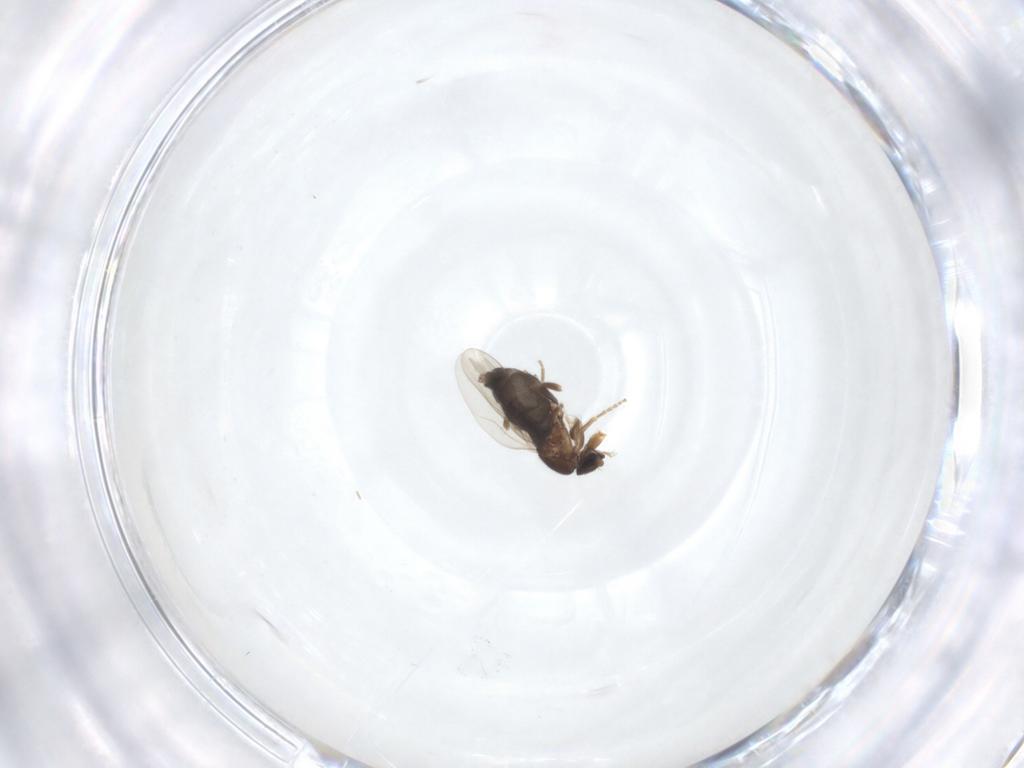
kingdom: Animalia
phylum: Arthropoda
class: Insecta
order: Diptera
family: Phoridae
